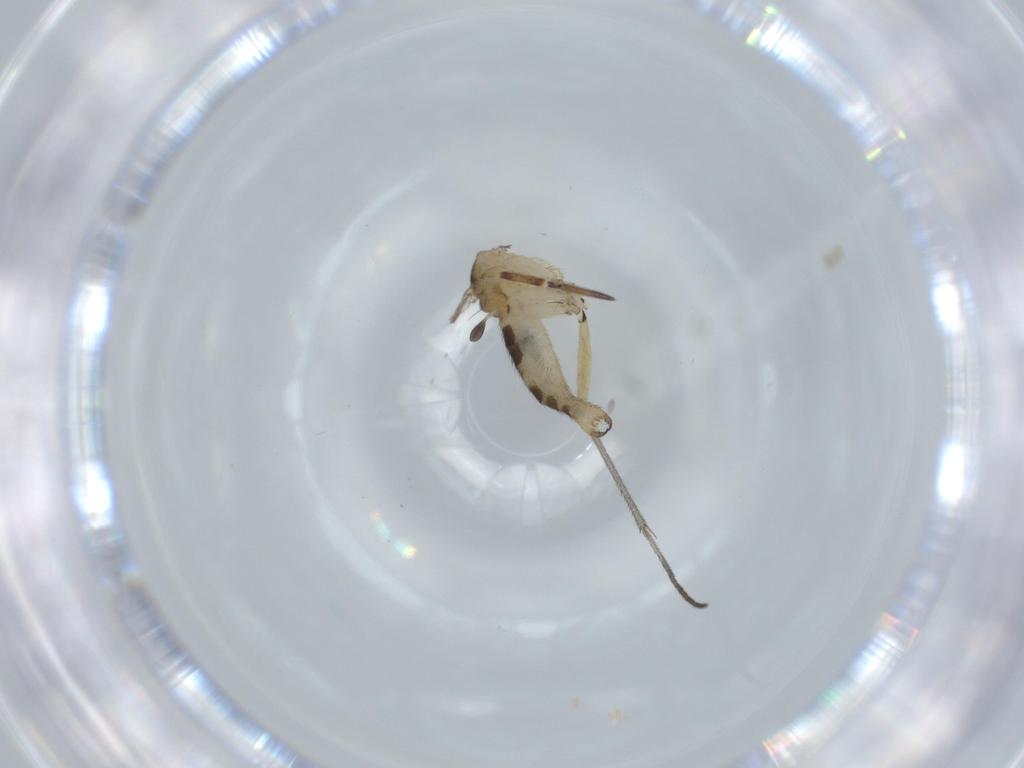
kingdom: Animalia
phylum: Arthropoda
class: Insecta
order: Diptera
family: Sciaridae
